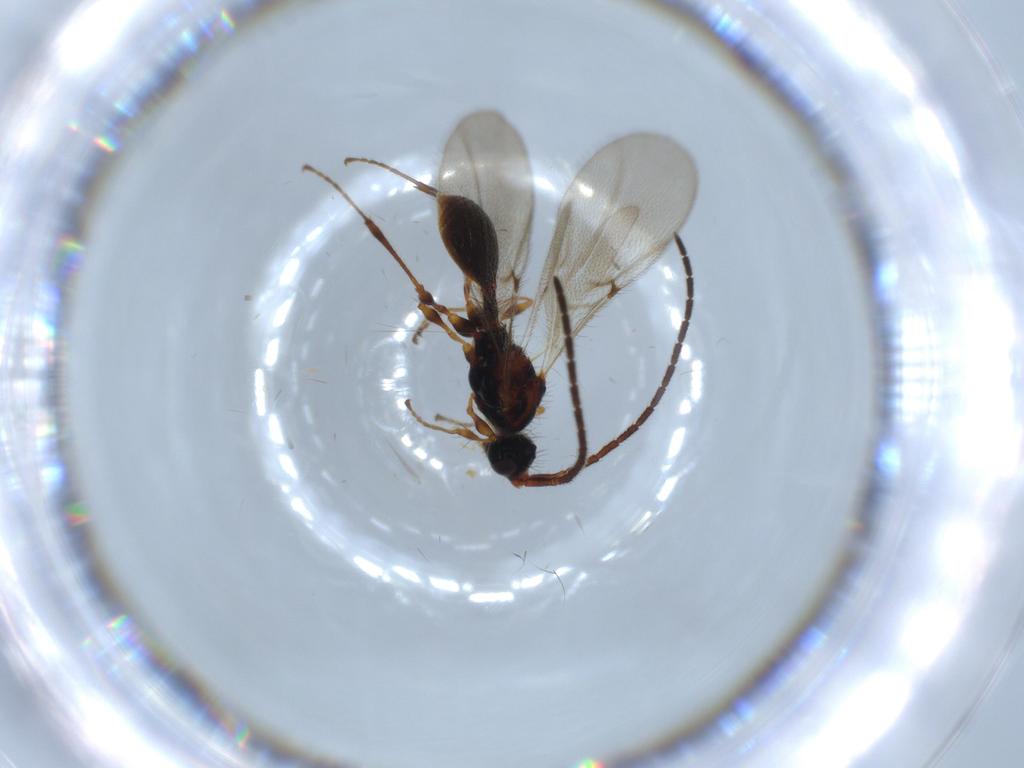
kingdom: Animalia
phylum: Arthropoda
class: Insecta
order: Hymenoptera
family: Diapriidae
